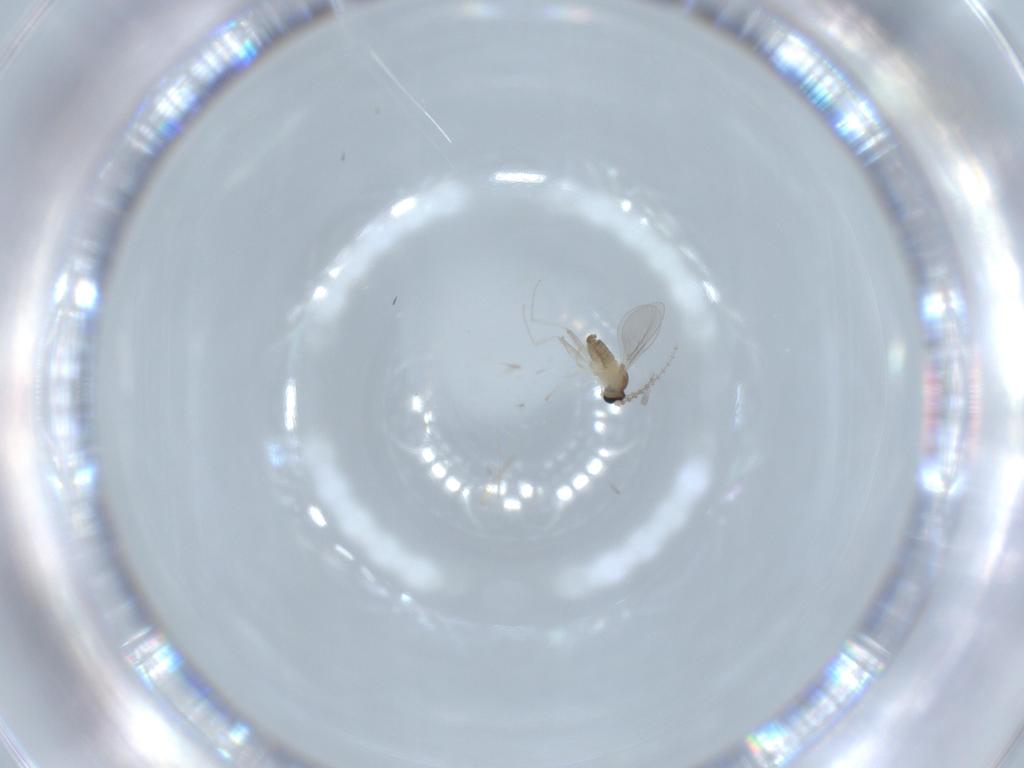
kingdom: Animalia
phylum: Arthropoda
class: Insecta
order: Diptera
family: Cecidomyiidae
